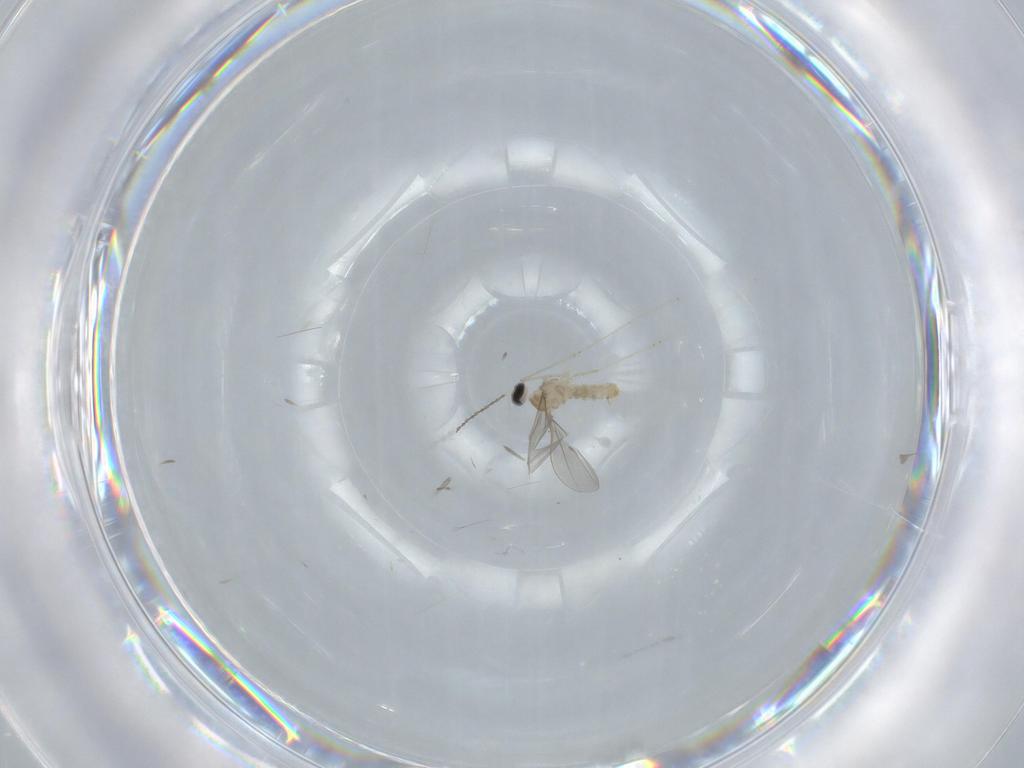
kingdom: Animalia
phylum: Arthropoda
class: Insecta
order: Diptera
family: Cecidomyiidae
